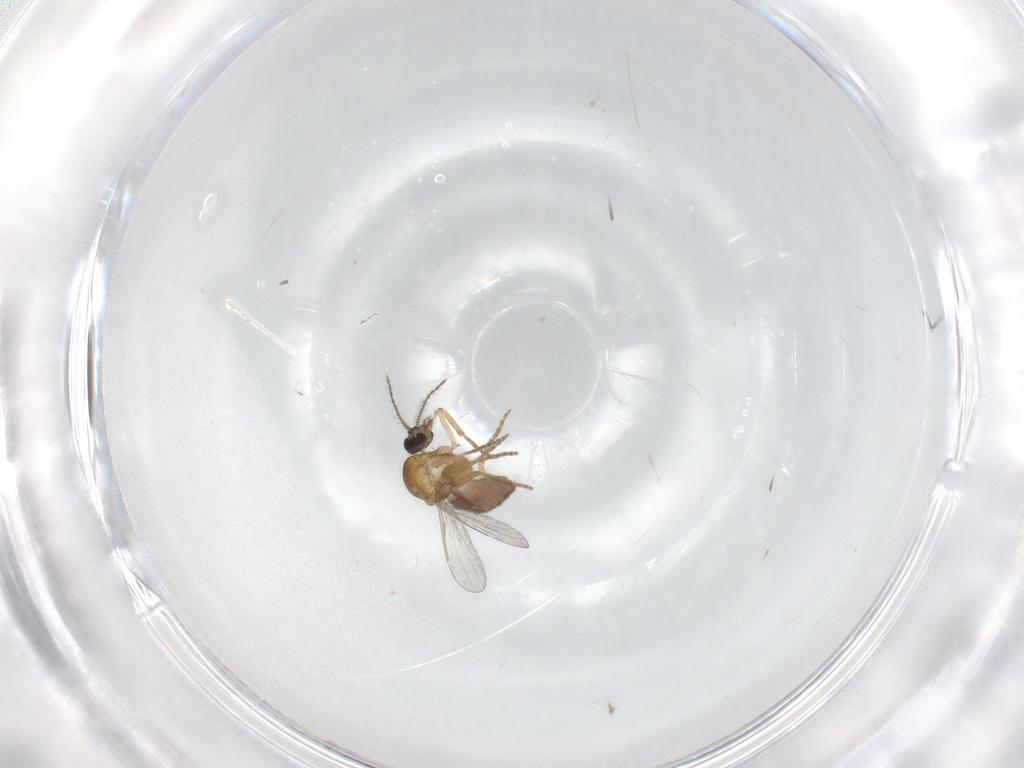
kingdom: Animalia
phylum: Arthropoda
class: Insecta
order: Diptera
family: Ceratopogonidae
